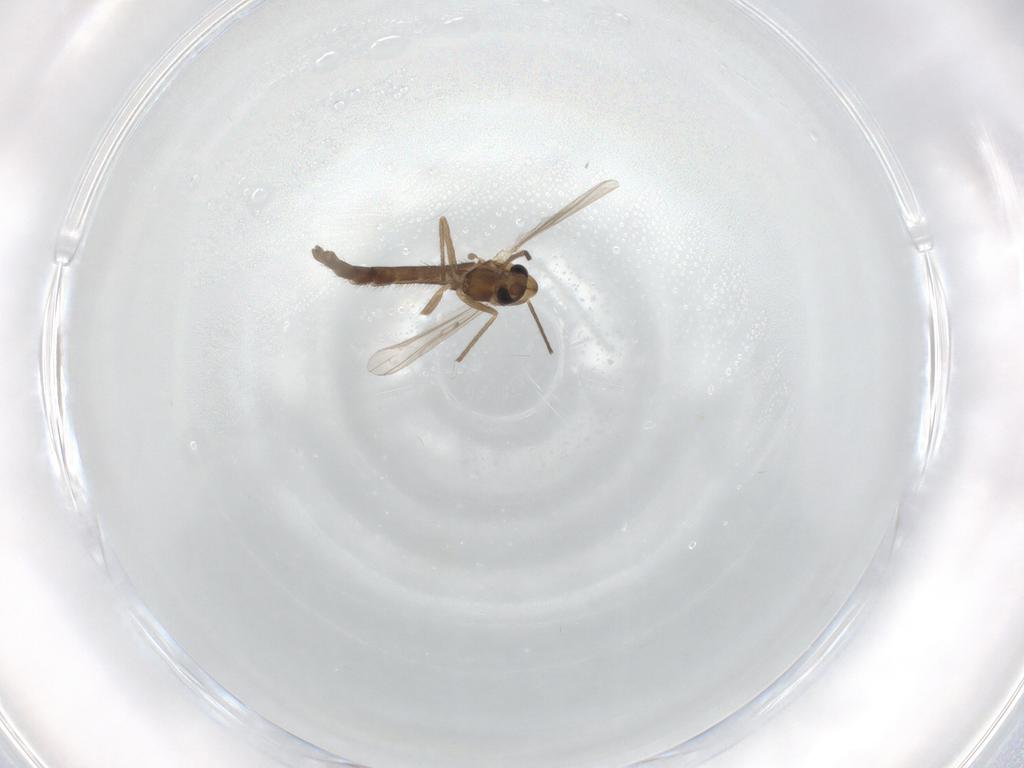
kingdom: Animalia
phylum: Arthropoda
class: Insecta
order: Diptera
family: Chironomidae
